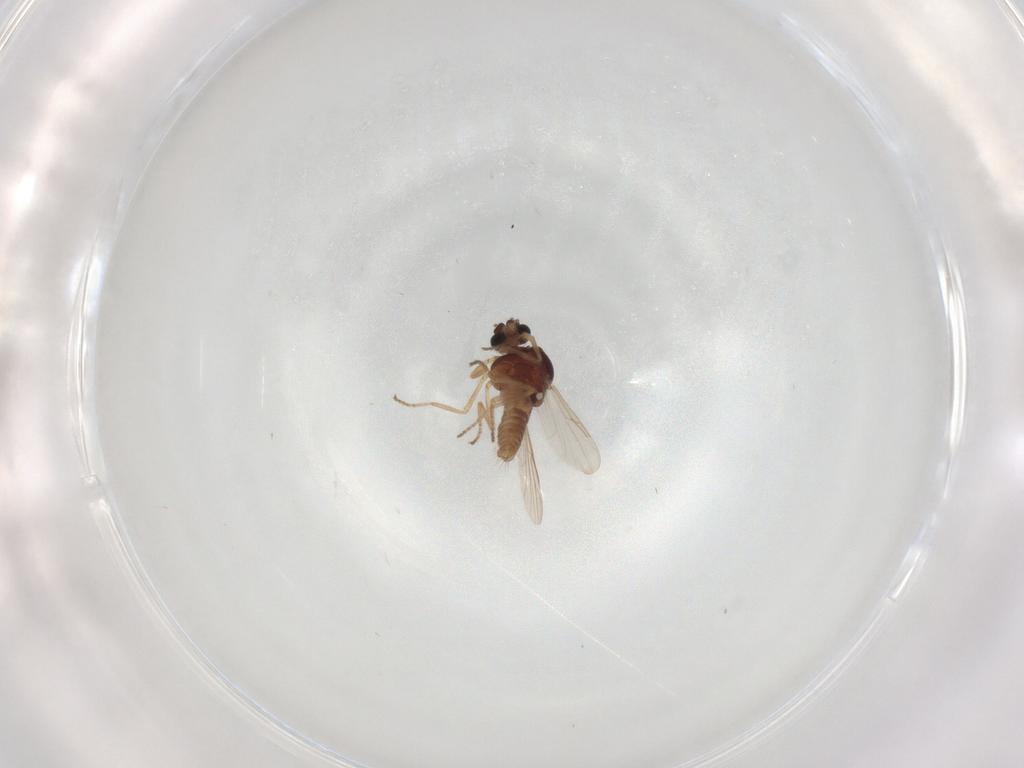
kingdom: Animalia
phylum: Arthropoda
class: Insecta
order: Diptera
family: Ceratopogonidae
